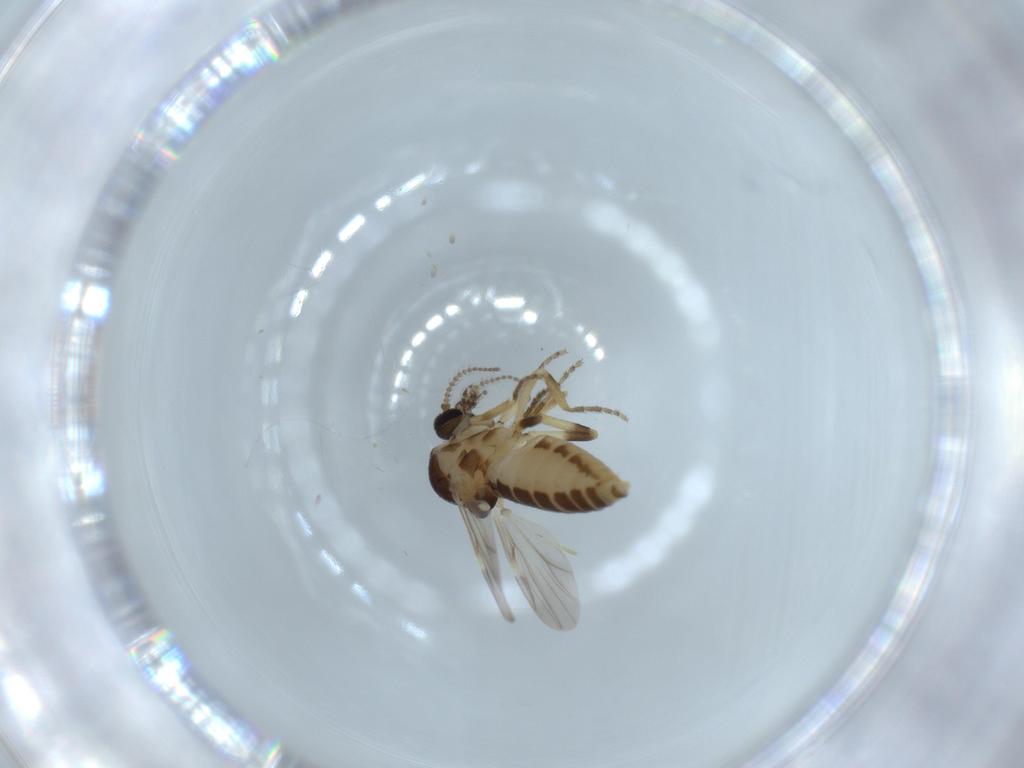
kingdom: Animalia
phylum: Arthropoda
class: Insecta
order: Diptera
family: Ceratopogonidae
